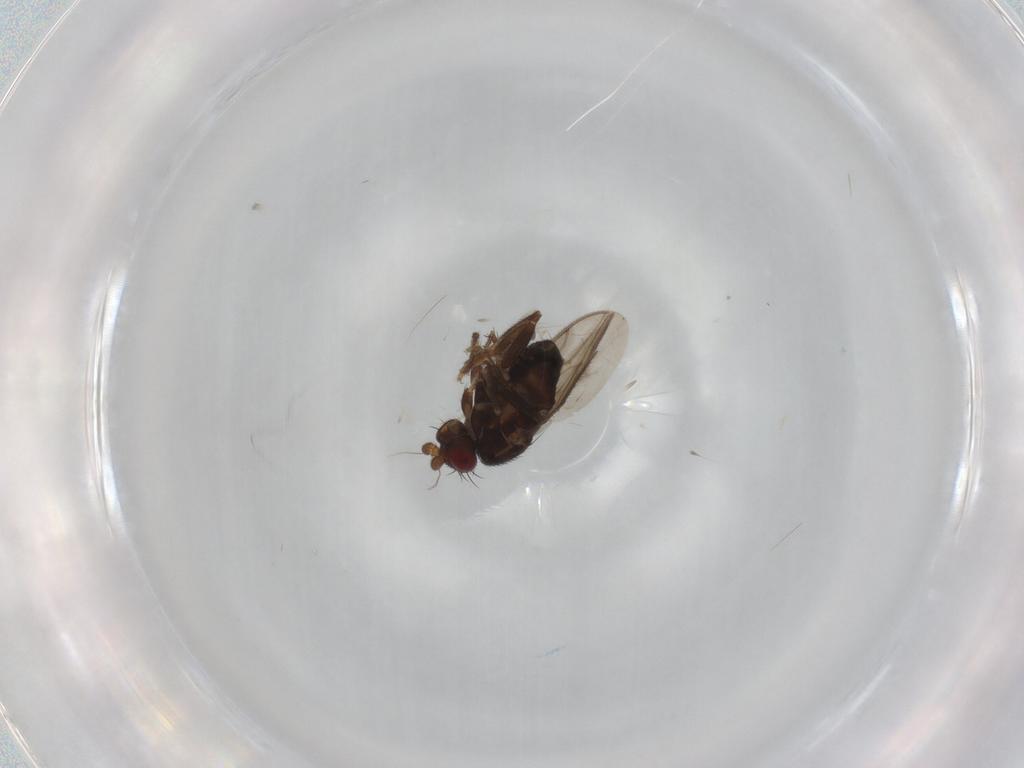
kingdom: Animalia
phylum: Arthropoda
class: Insecta
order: Diptera
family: Sphaeroceridae
